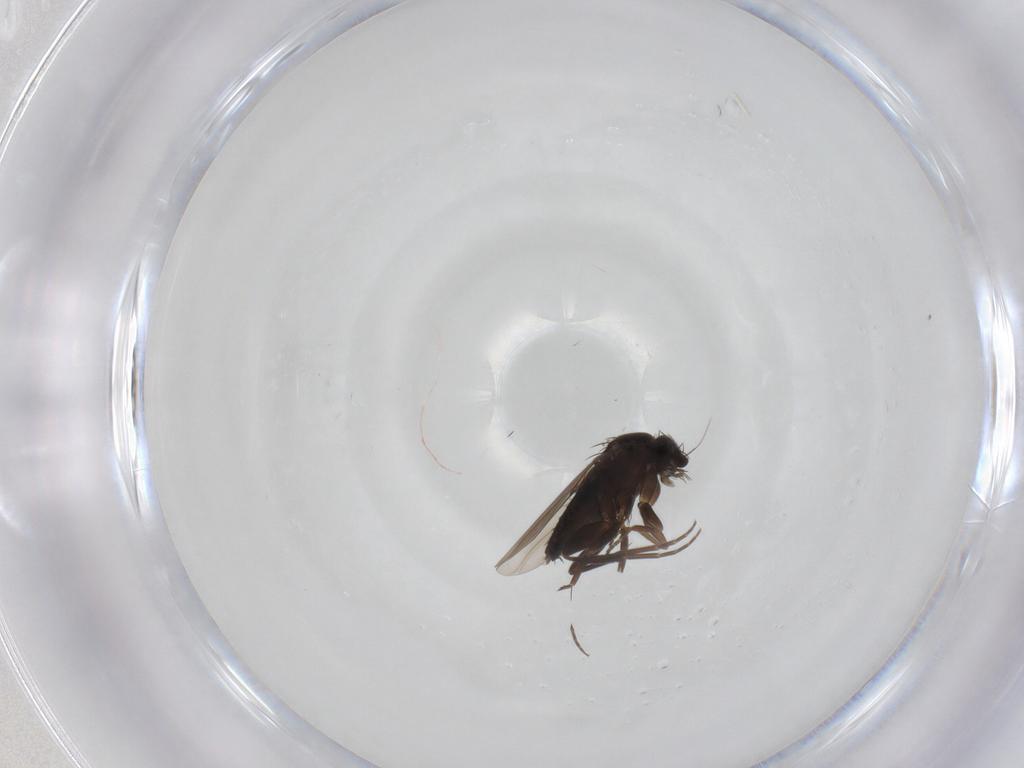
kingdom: Animalia
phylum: Arthropoda
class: Insecta
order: Diptera
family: Phoridae
